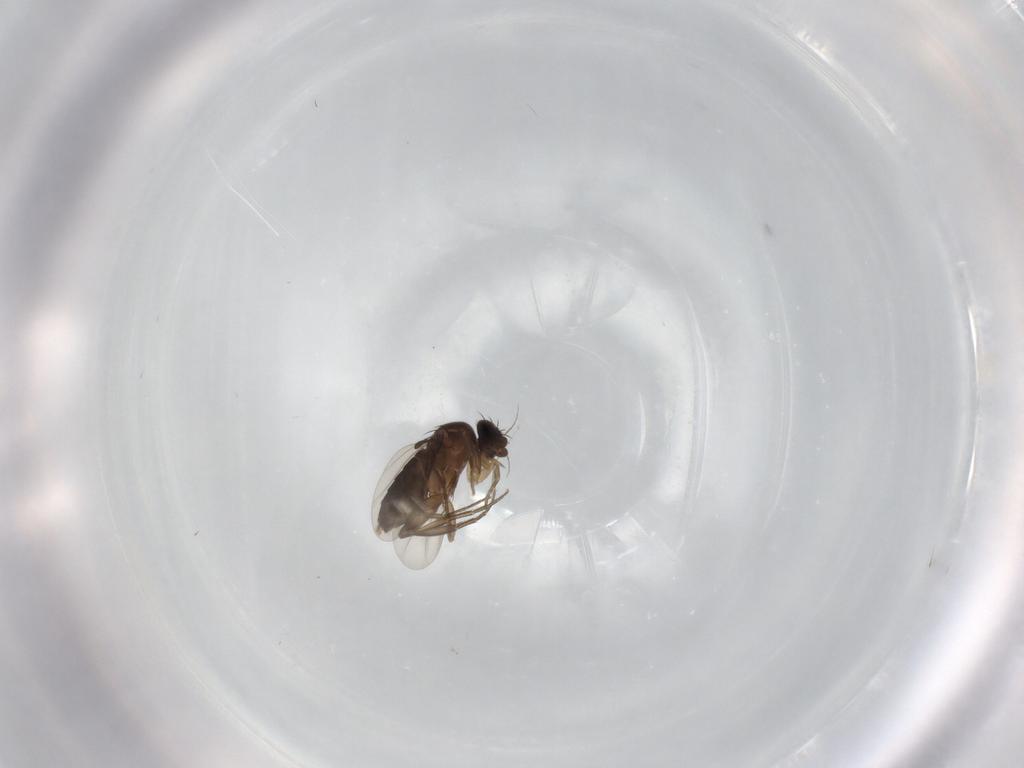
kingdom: Animalia
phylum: Arthropoda
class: Insecta
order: Diptera
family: Phoridae
